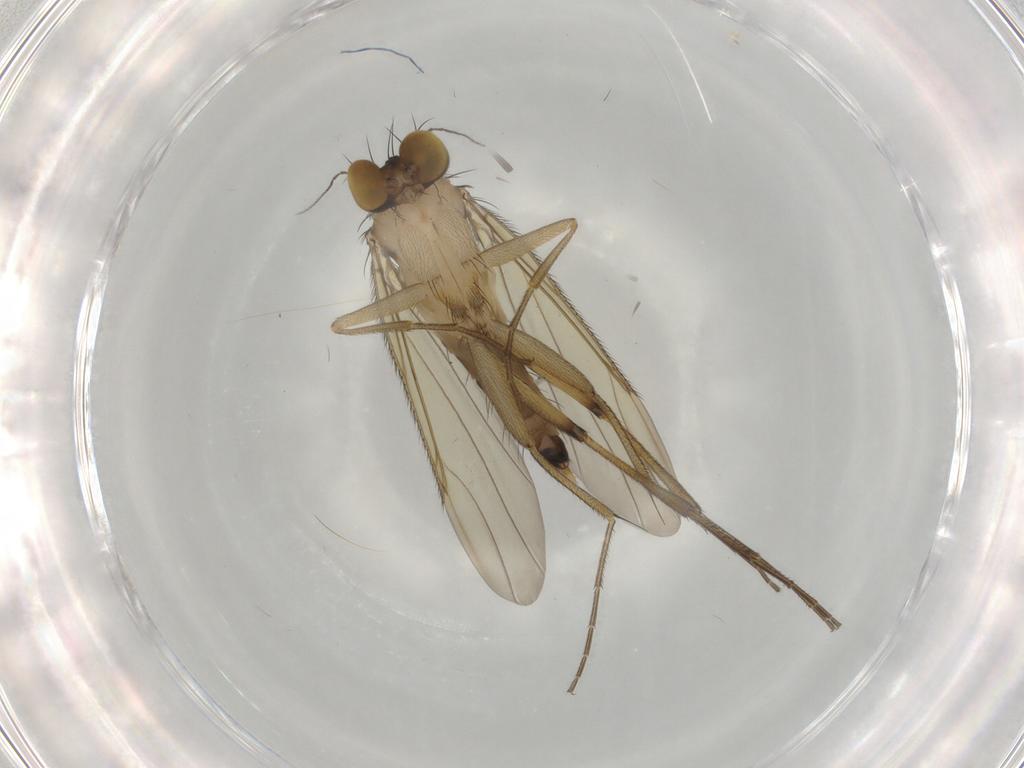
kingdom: Animalia
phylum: Arthropoda
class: Insecta
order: Diptera
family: Phoridae
